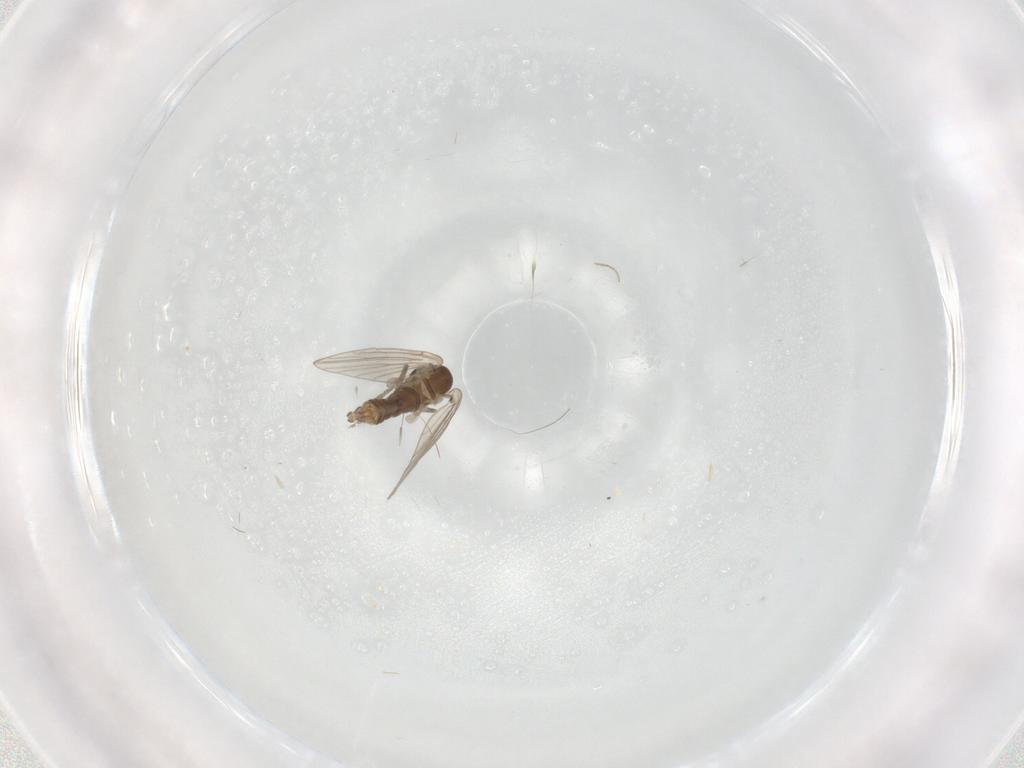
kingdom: Animalia
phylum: Arthropoda
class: Insecta
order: Diptera
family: Chironomidae
